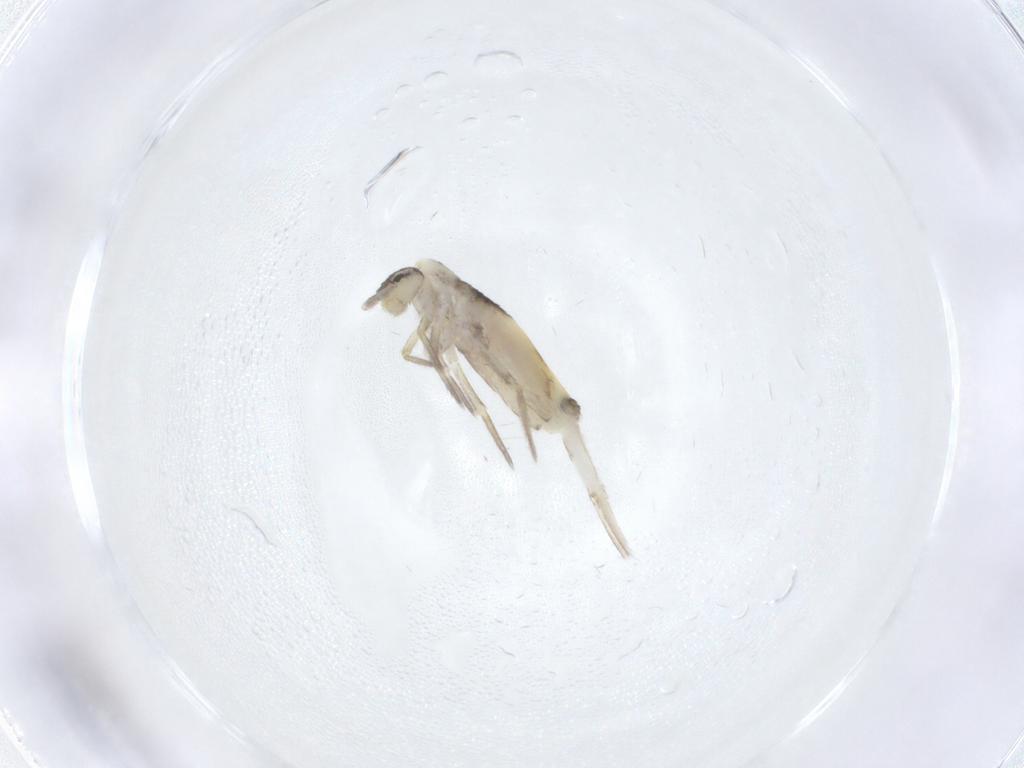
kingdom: Animalia
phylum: Arthropoda
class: Collembola
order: Entomobryomorpha
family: Entomobryidae
